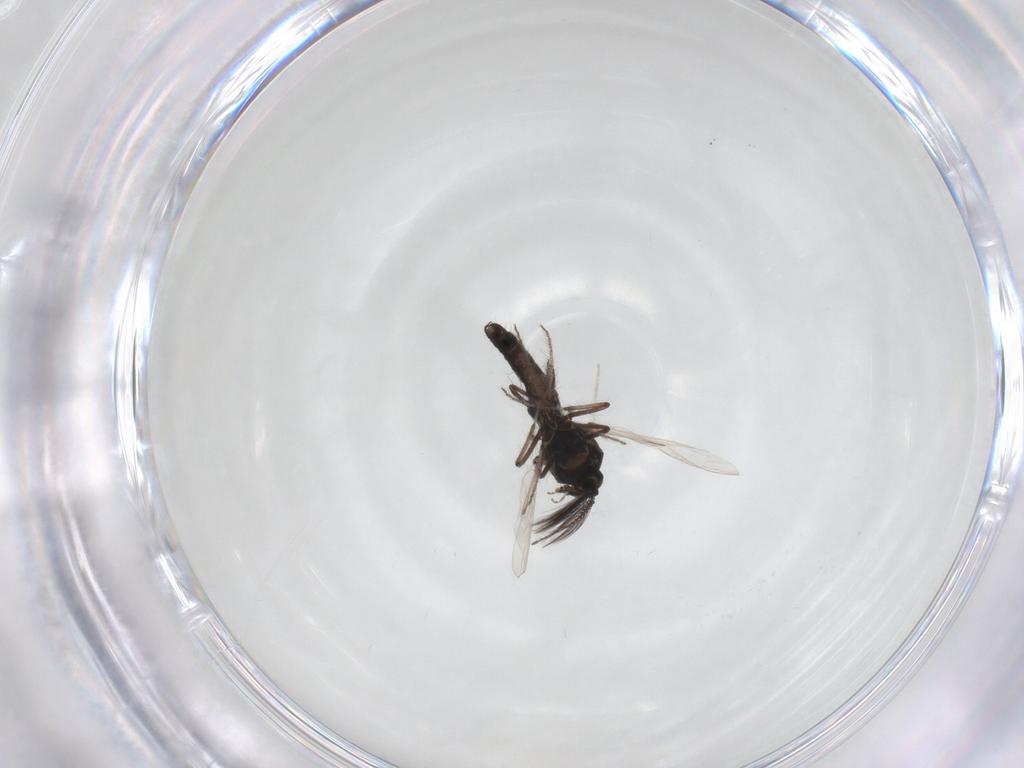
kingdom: Animalia
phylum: Arthropoda
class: Insecta
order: Diptera
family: Ceratopogonidae
